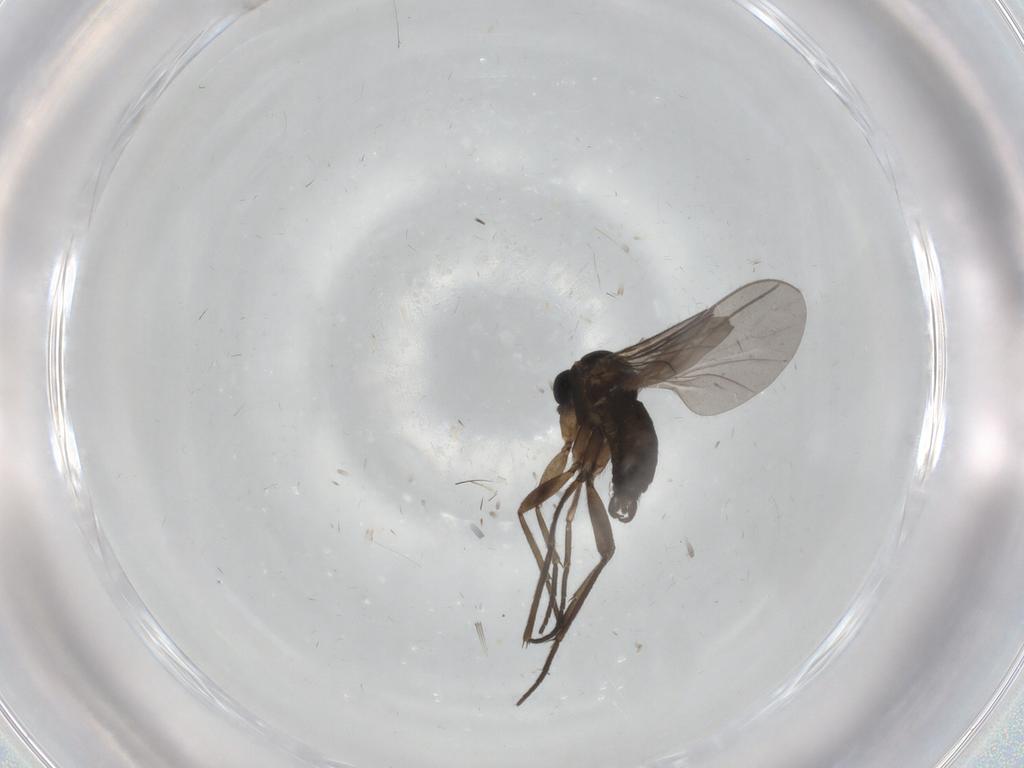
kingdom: Animalia
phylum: Arthropoda
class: Insecta
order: Diptera
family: Sciaridae
